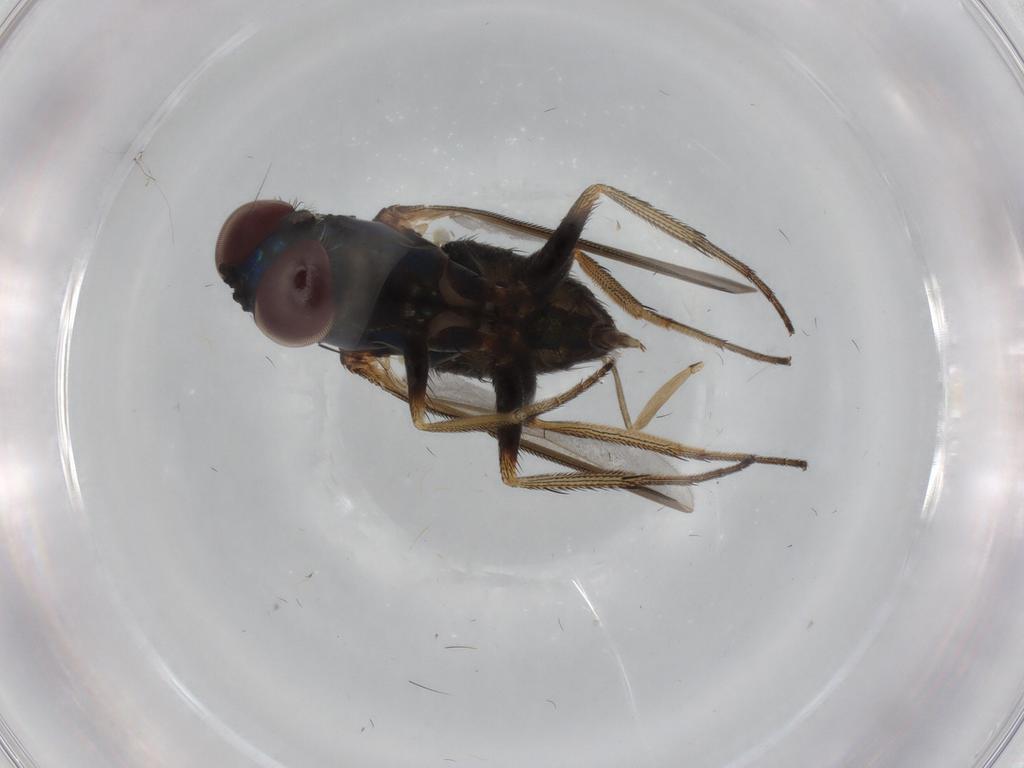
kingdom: Animalia
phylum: Arthropoda
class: Insecta
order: Diptera
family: Dolichopodidae
